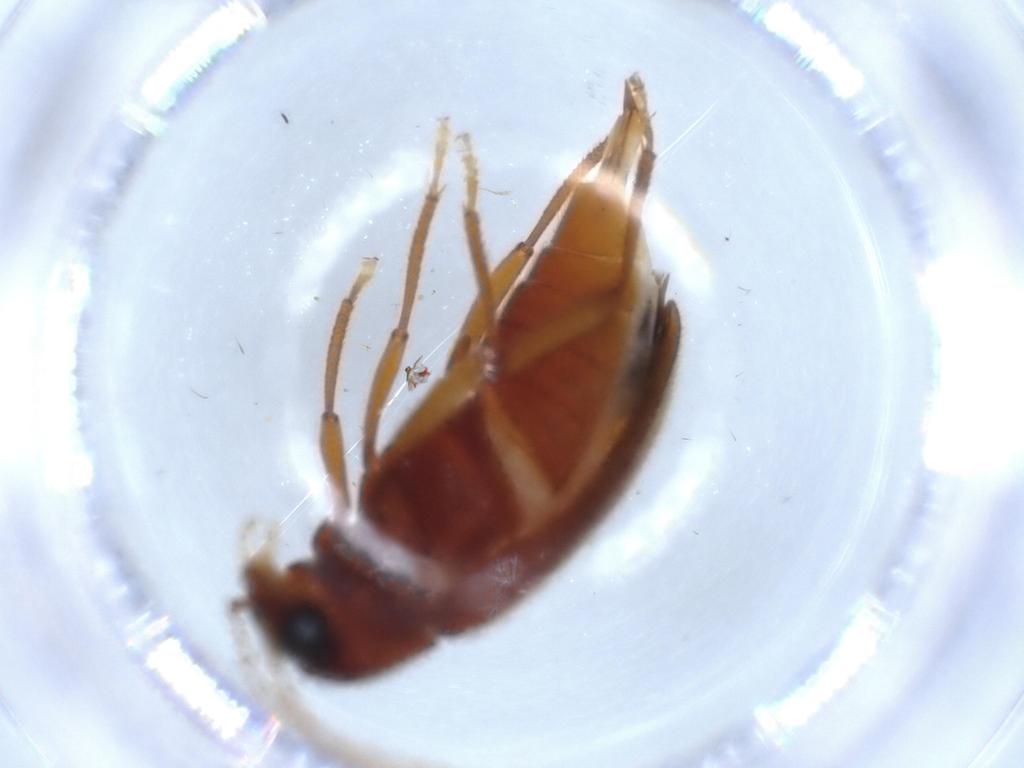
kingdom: Animalia
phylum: Arthropoda
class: Insecta
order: Coleoptera
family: Ptilodactylidae
